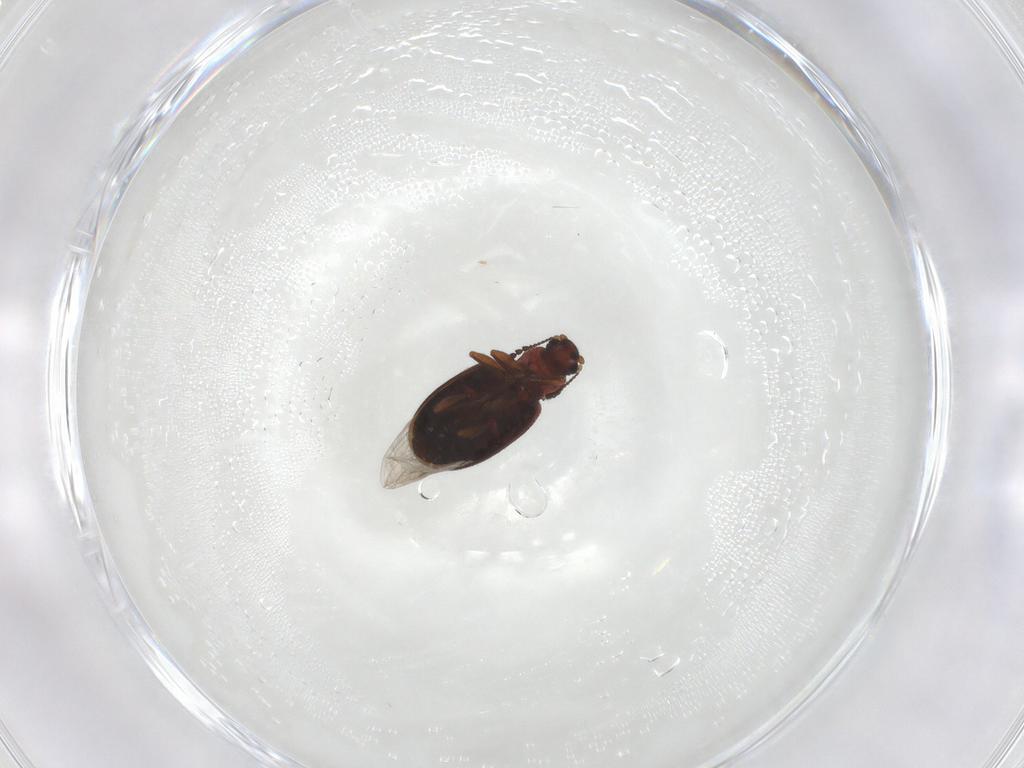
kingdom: Animalia
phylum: Arthropoda
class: Insecta
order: Coleoptera
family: Latridiidae
